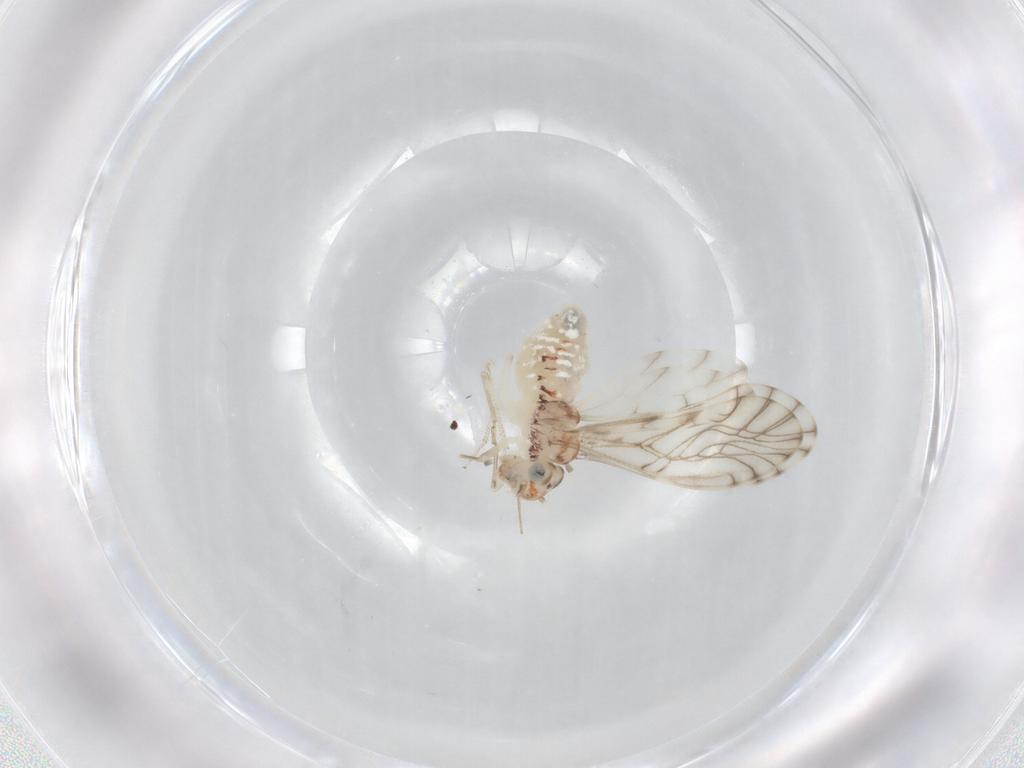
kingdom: Animalia
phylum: Arthropoda
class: Insecta
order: Psocodea
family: Philotarsidae
